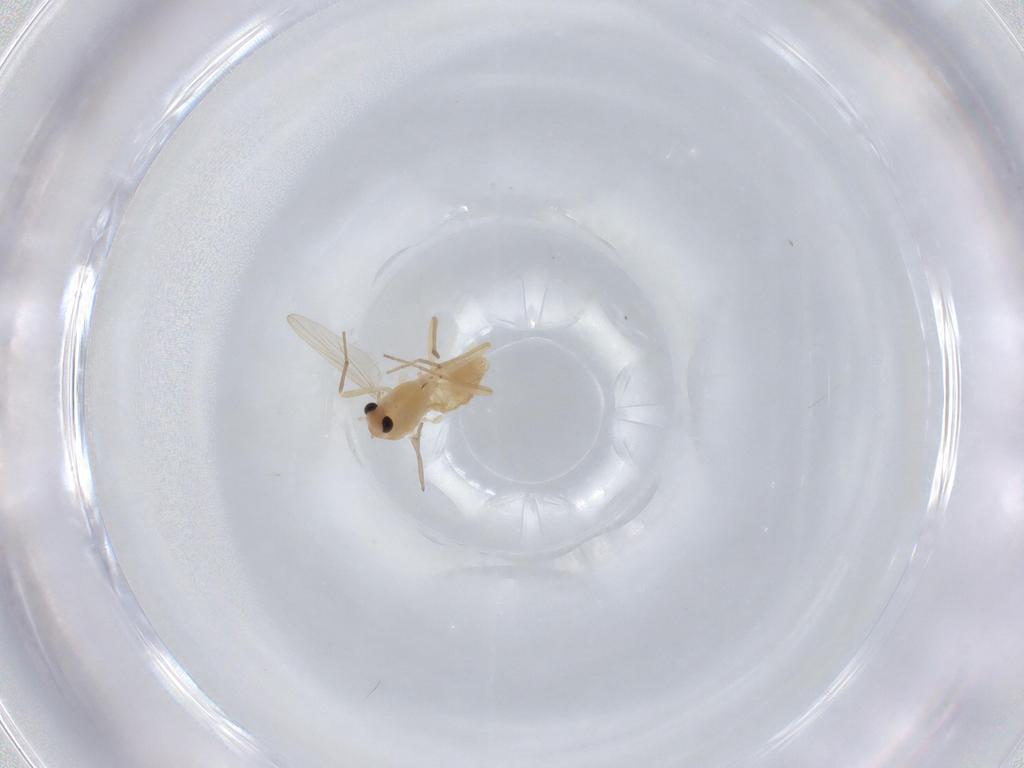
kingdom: Animalia
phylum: Arthropoda
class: Insecta
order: Diptera
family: Chironomidae
